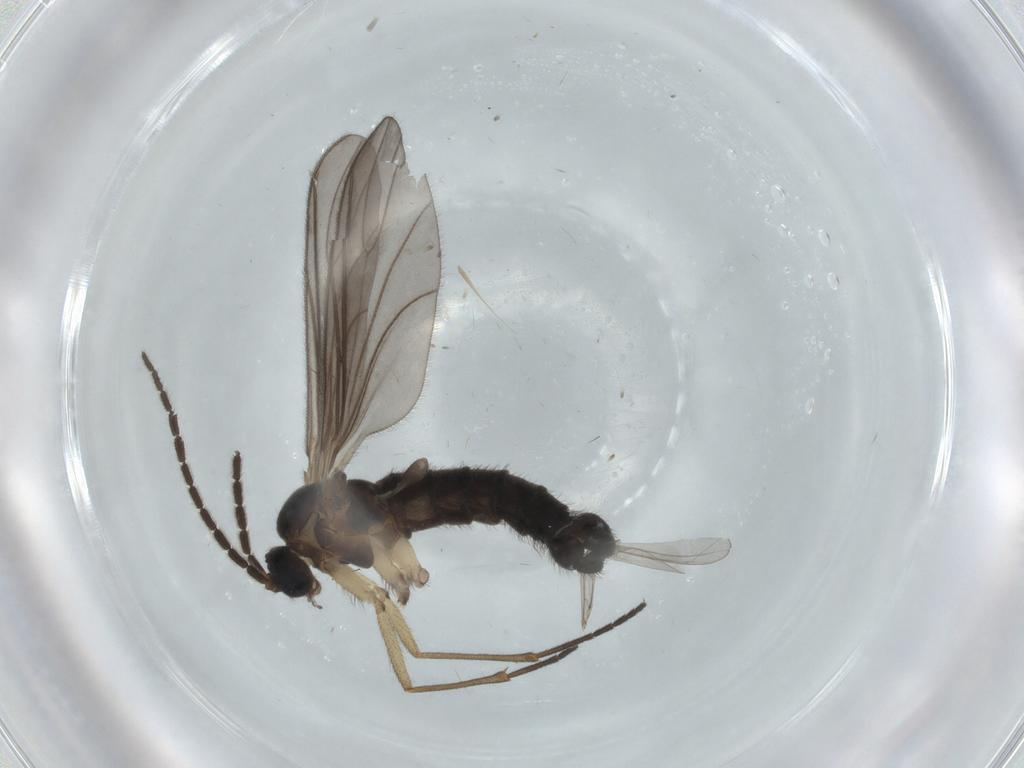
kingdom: Animalia
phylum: Arthropoda
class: Insecta
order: Diptera
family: Sciaridae
